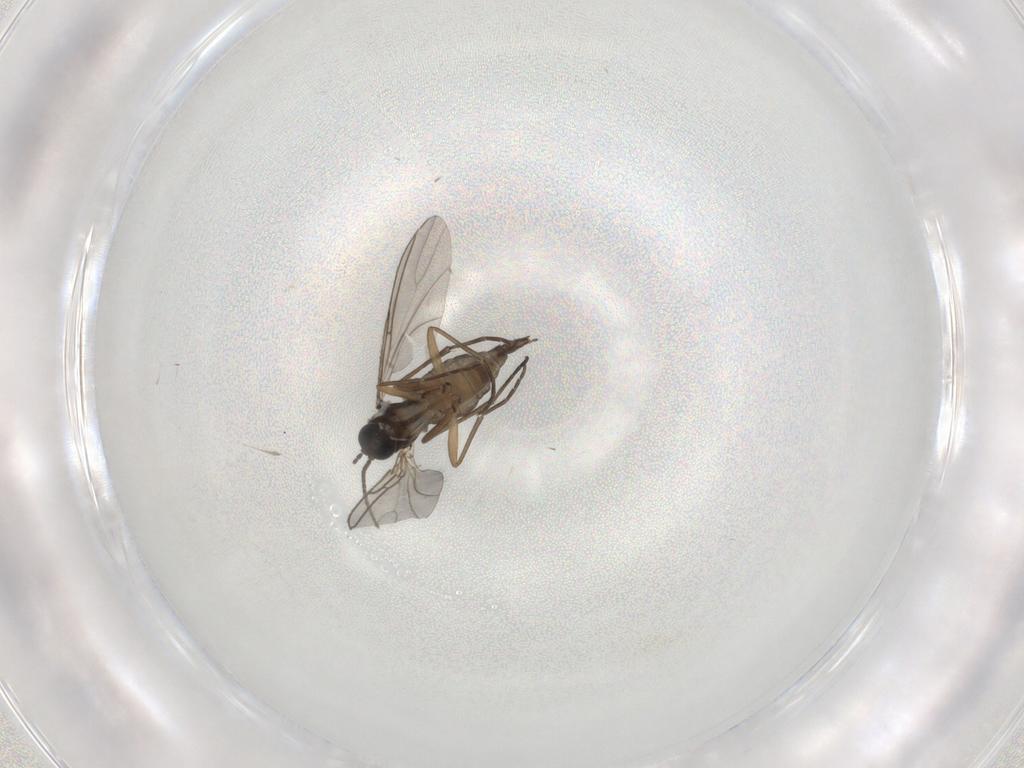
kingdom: Animalia
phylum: Arthropoda
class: Insecta
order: Diptera
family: Sciaridae
